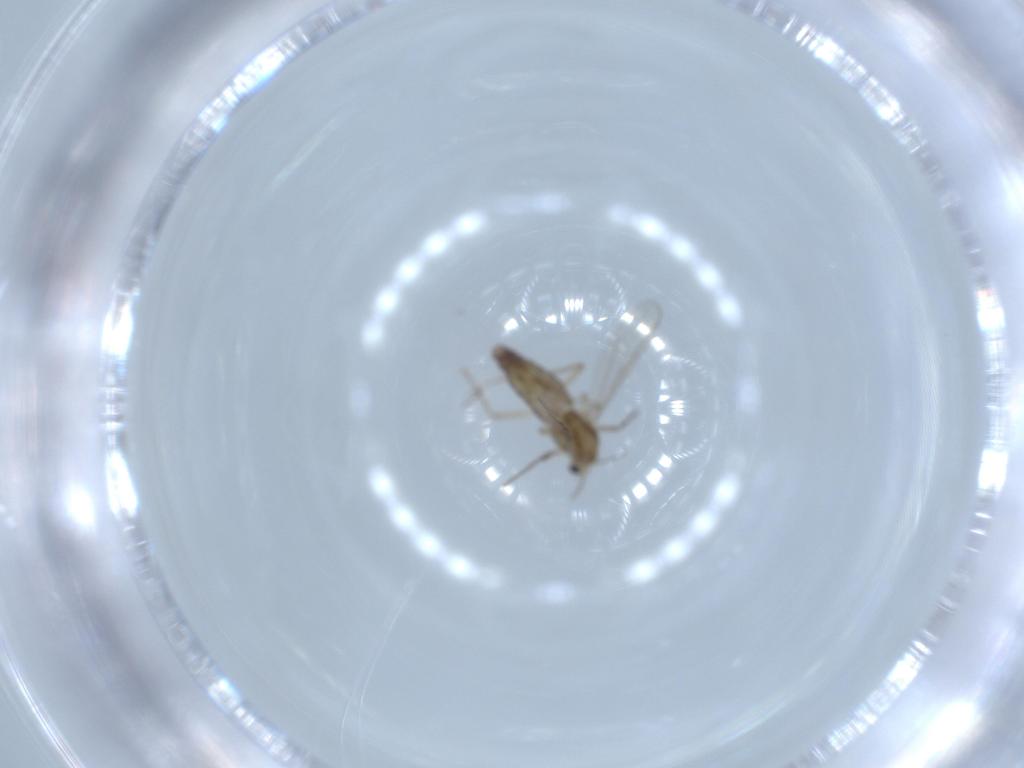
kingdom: Animalia
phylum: Arthropoda
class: Insecta
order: Diptera
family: Chironomidae
